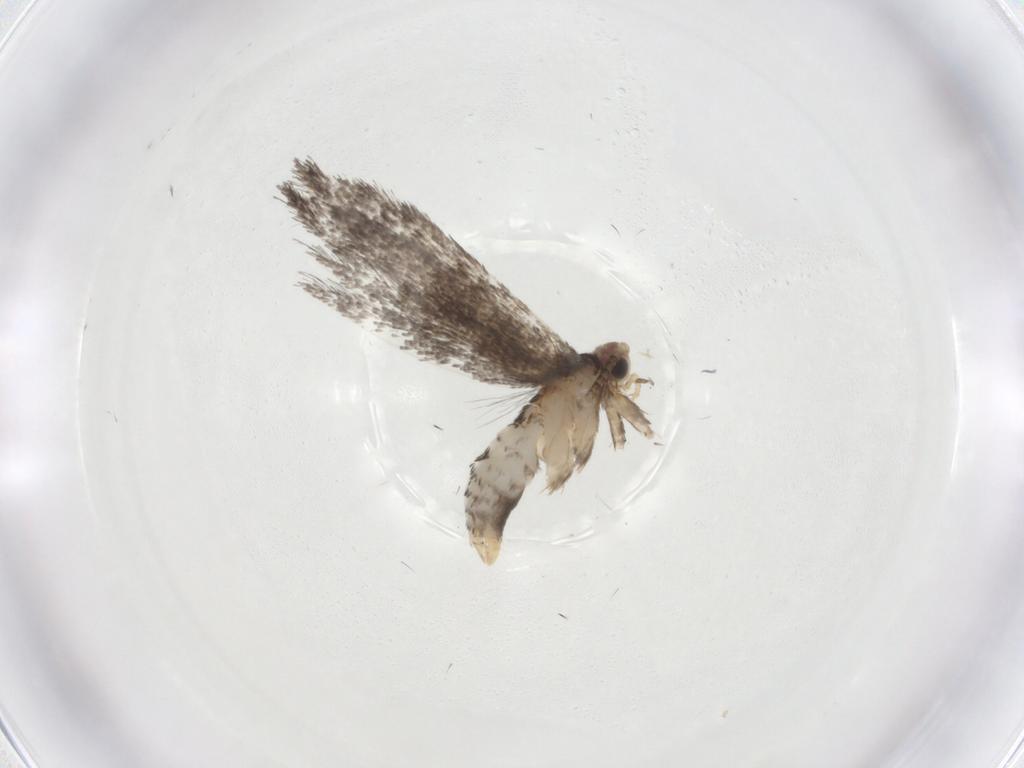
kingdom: Animalia
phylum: Arthropoda
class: Insecta
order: Lepidoptera
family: Tineidae
